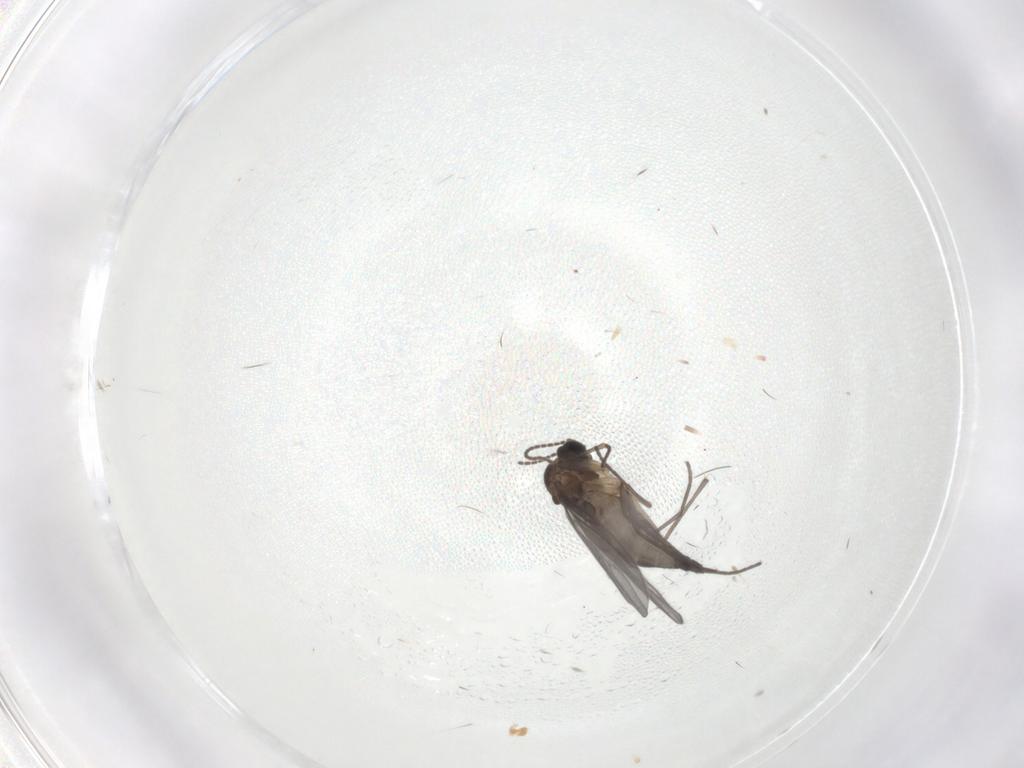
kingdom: Animalia
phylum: Arthropoda
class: Insecta
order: Diptera
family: Sciaridae
